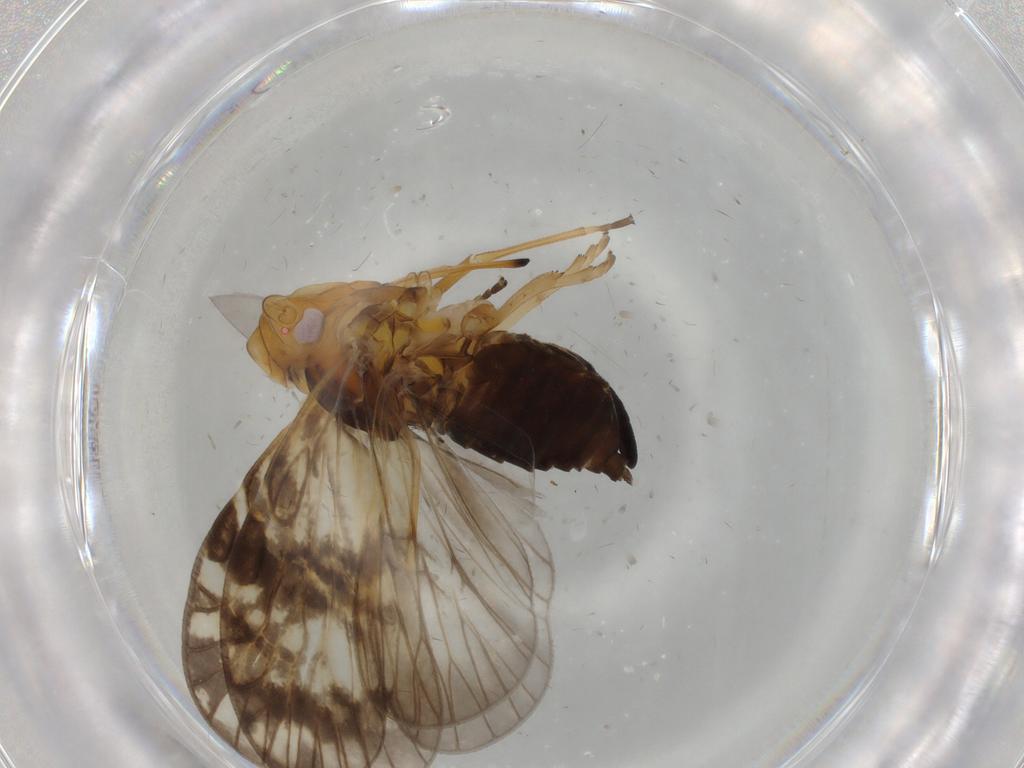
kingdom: Animalia
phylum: Arthropoda
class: Insecta
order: Hemiptera
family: Cixiidae
